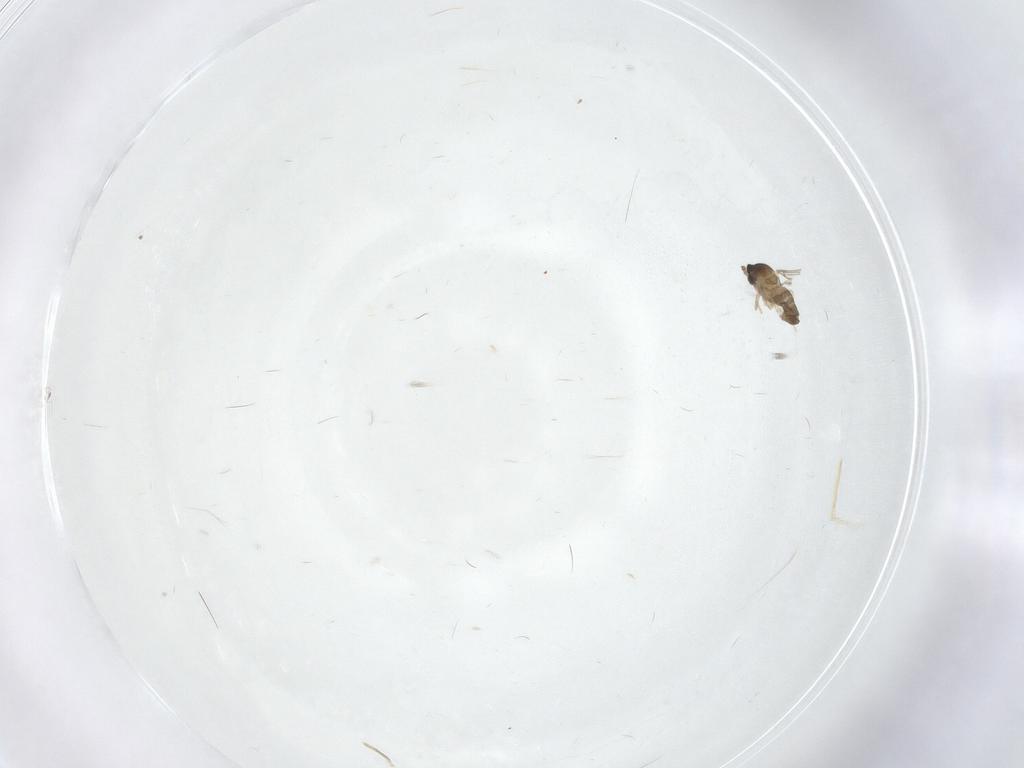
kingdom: Animalia
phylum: Arthropoda
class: Insecta
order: Diptera
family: Cecidomyiidae
